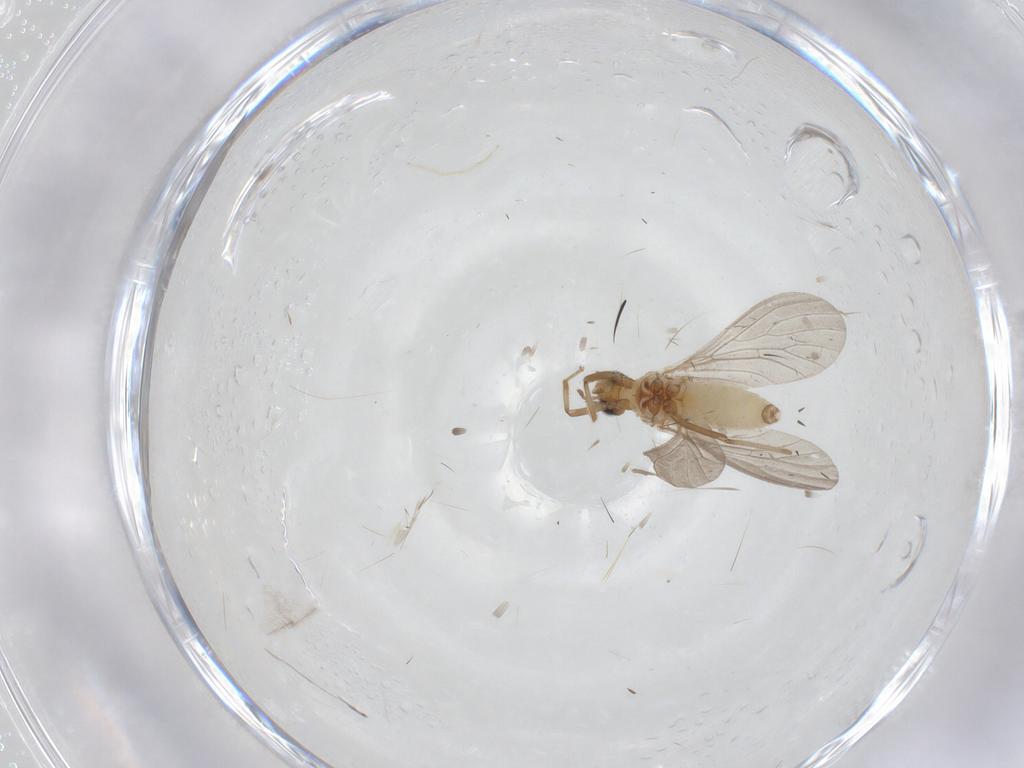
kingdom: Animalia
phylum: Arthropoda
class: Insecta
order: Neuroptera
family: Coniopterygidae
